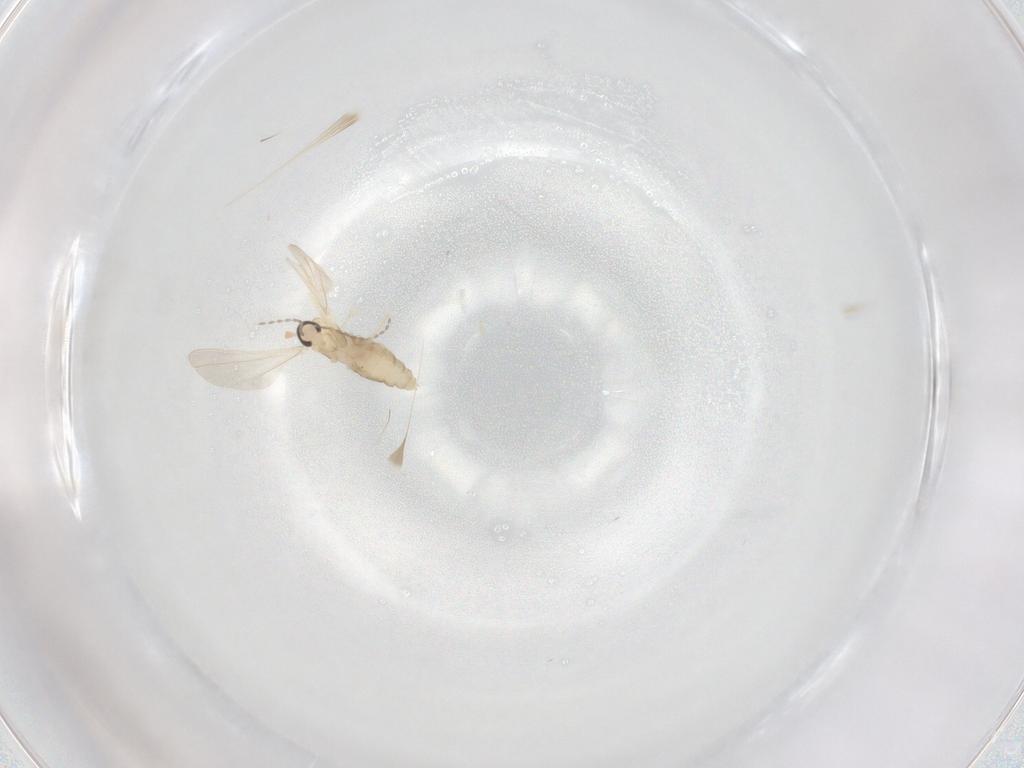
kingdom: Animalia
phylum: Arthropoda
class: Insecta
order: Diptera
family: Cecidomyiidae
